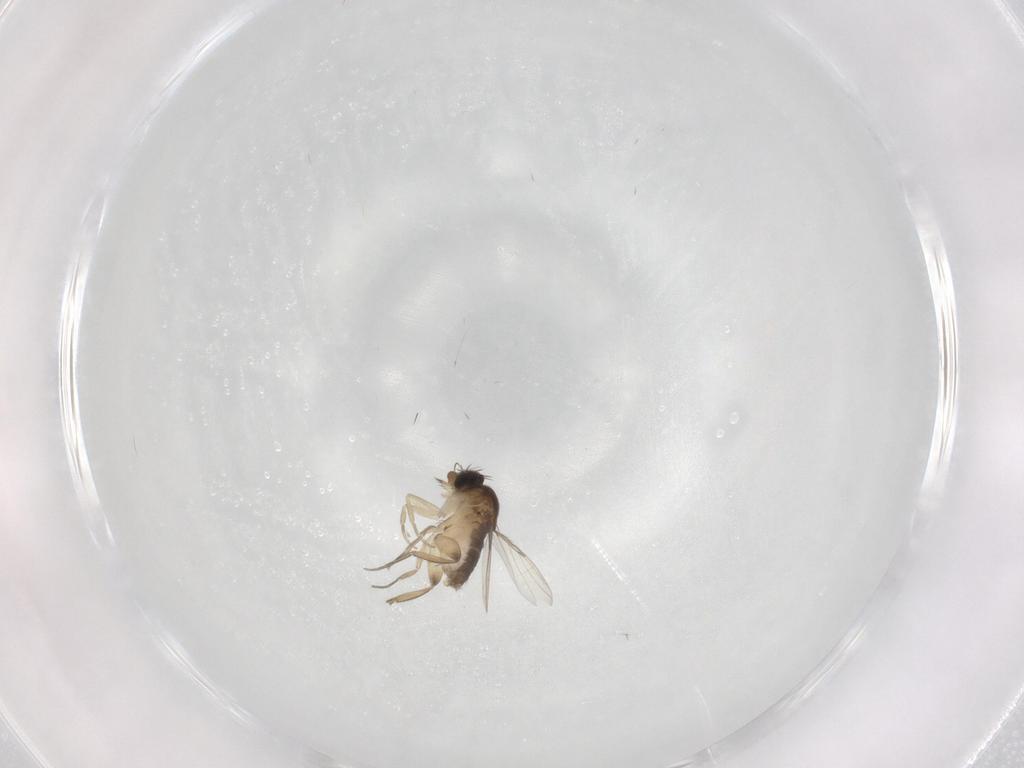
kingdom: Animalia
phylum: Arthropoda
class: Insecta
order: Diptera
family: Phoridae
